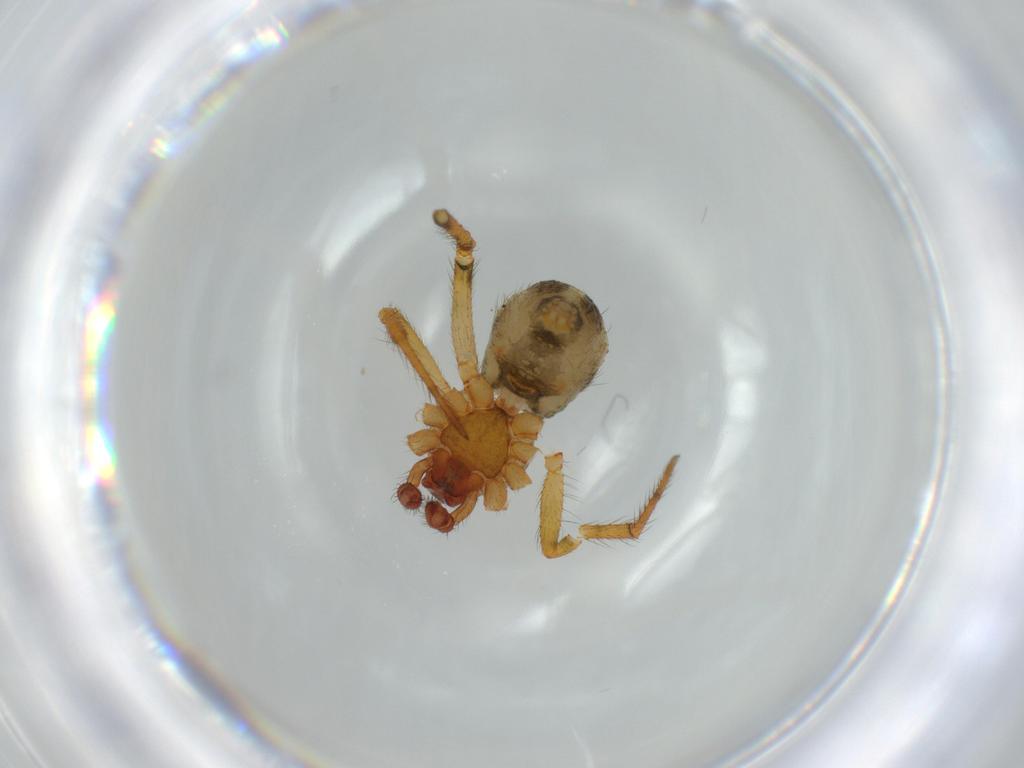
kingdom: Animalia
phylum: Arthropoda
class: Arachnida
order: Araneae
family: Theridiidae
